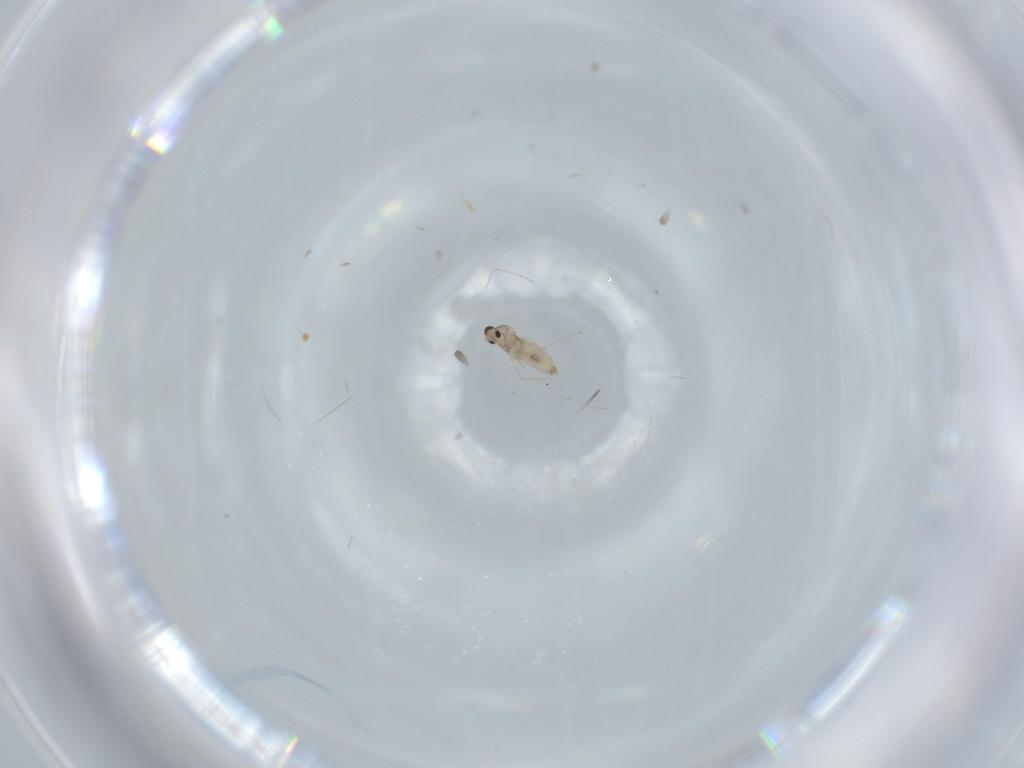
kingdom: Animalia
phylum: Arthropoda
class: Insecta
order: Diptera
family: Cecidomyiidae
